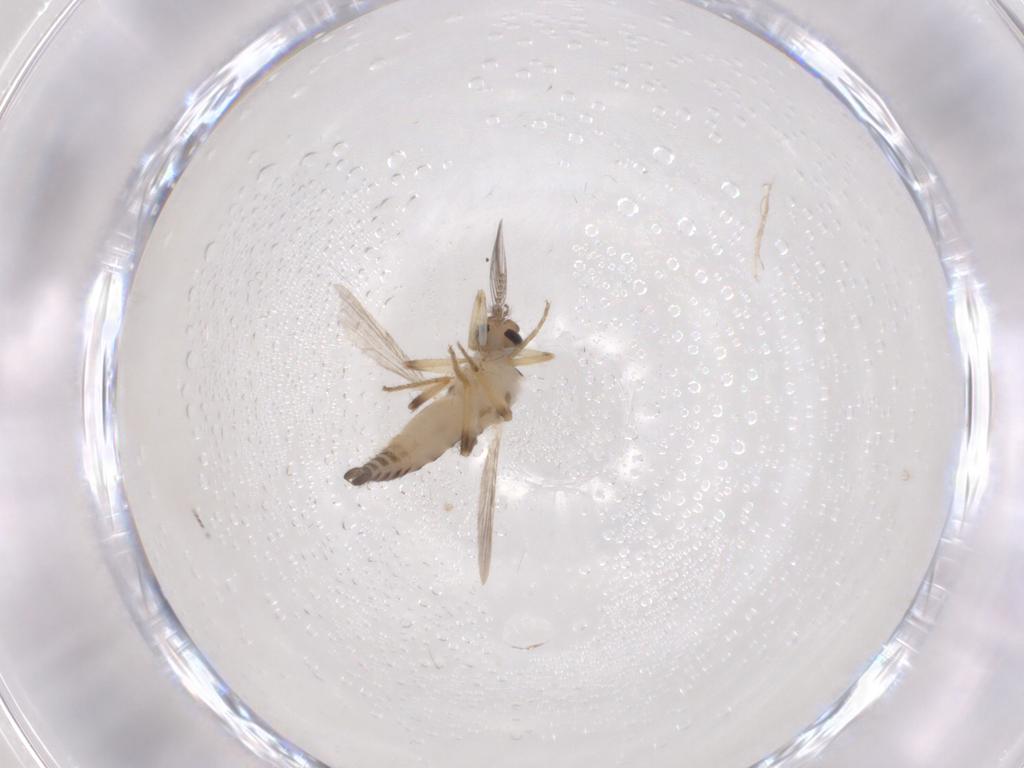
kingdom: Animalia
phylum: Arthropoda
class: Insecta
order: Diptera
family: Ceratopogonidae
